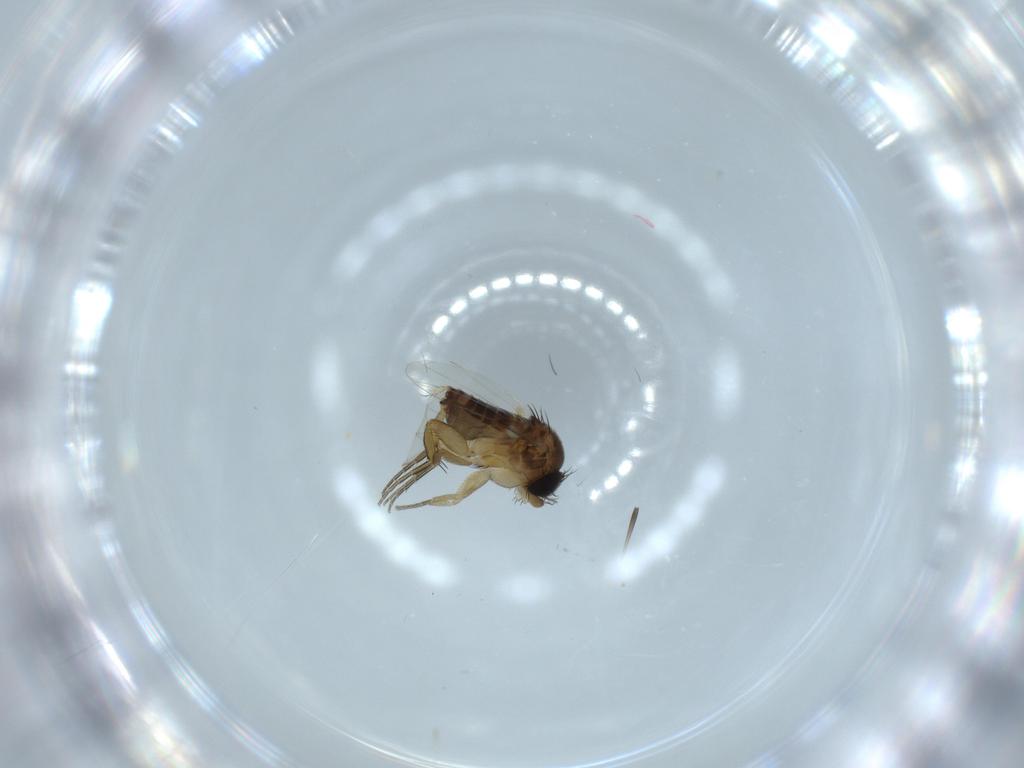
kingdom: Animalia
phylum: Arthropoda
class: Insecta
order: Diptera
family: Phoridae
